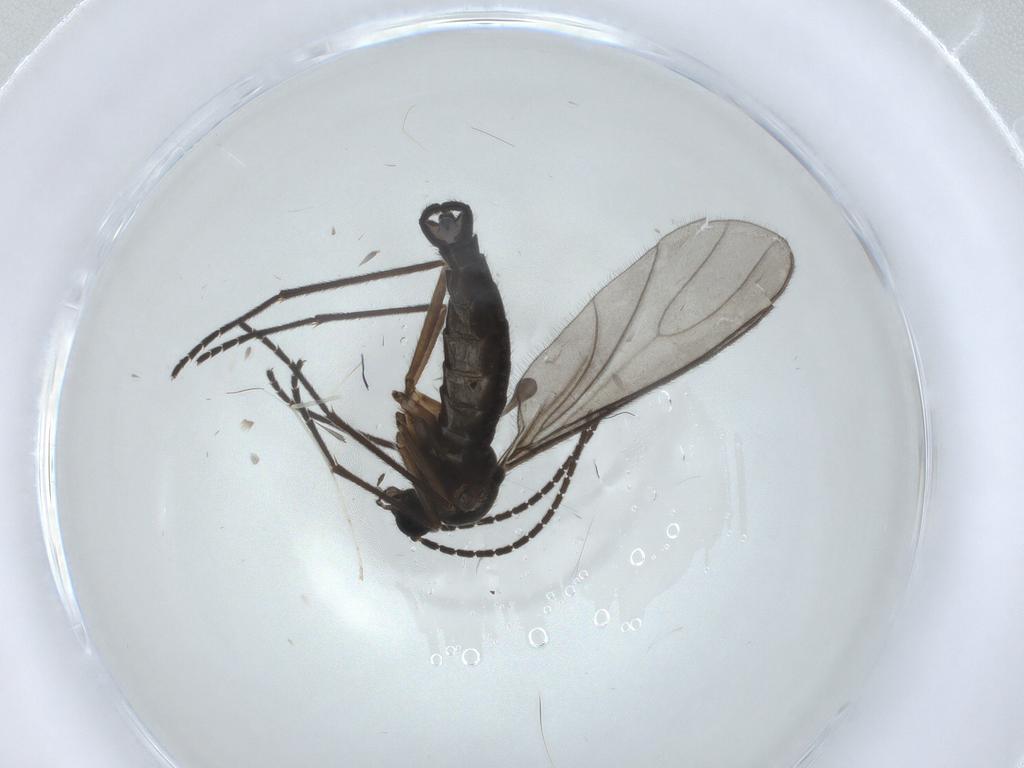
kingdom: Animalia
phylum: Arthropoda
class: Insecta
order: Diptera
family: Sciaridae
